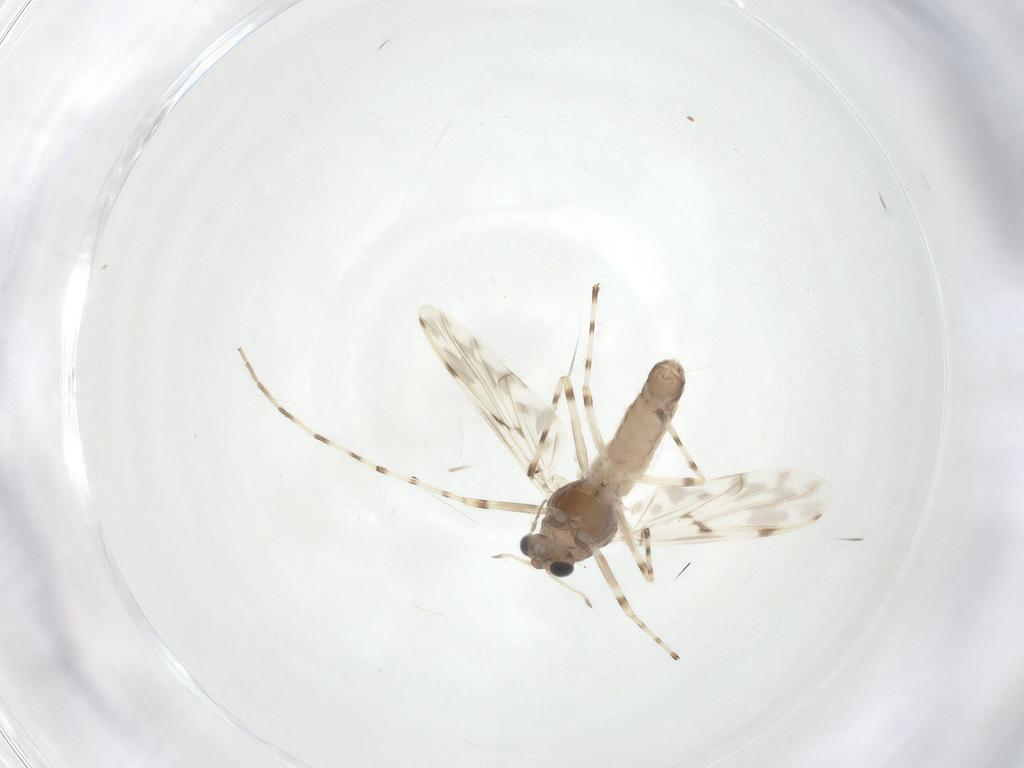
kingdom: Animalia
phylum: Arthropoda
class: Insecta
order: Diptera
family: Chironomidae
